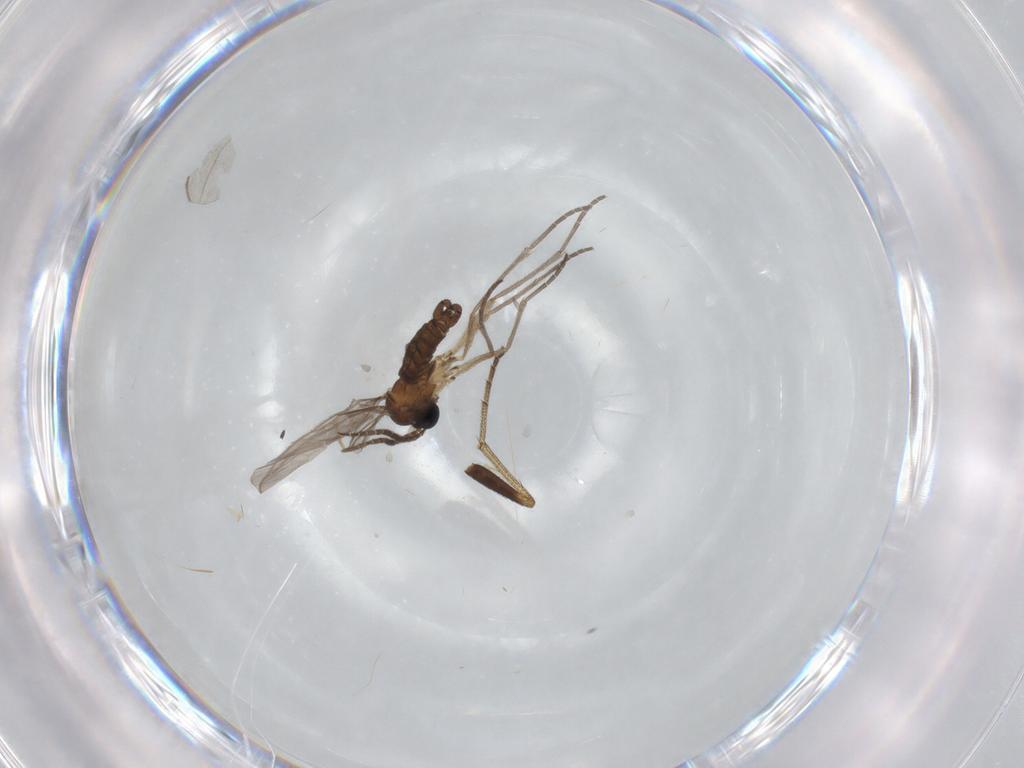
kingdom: Animalia
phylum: Arthropoda
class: Insecta
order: Diptera
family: Sciaridae
